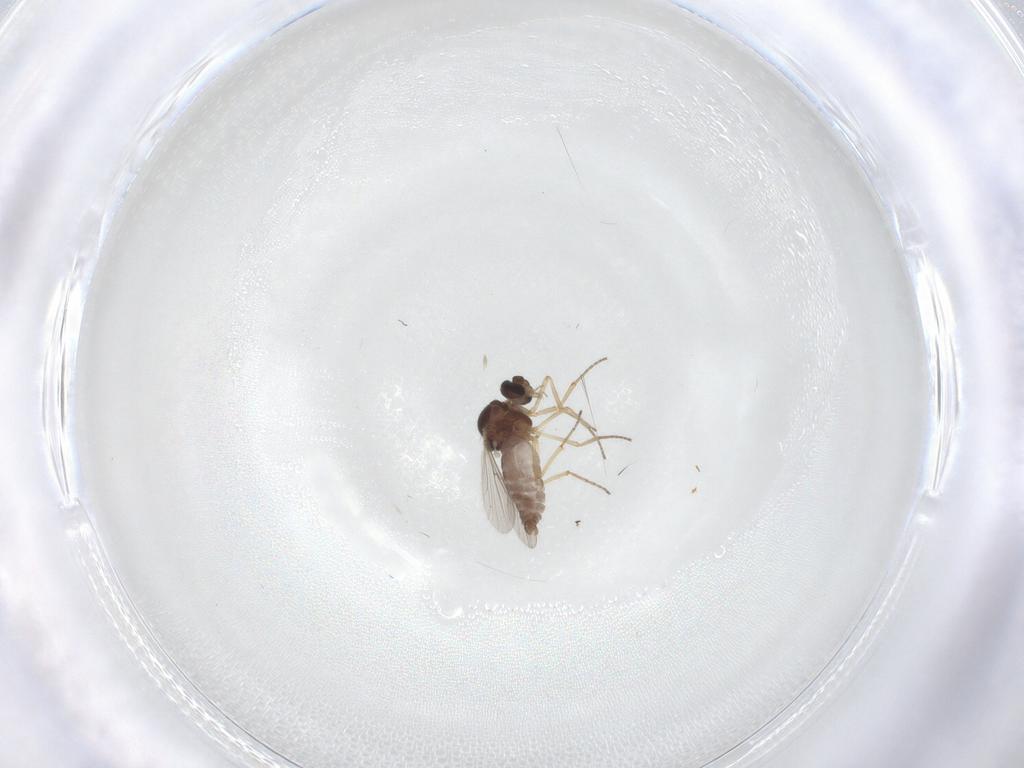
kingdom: Animalia
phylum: Arthropoda
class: Insecta
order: Diptera
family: Ceratopogonidae
